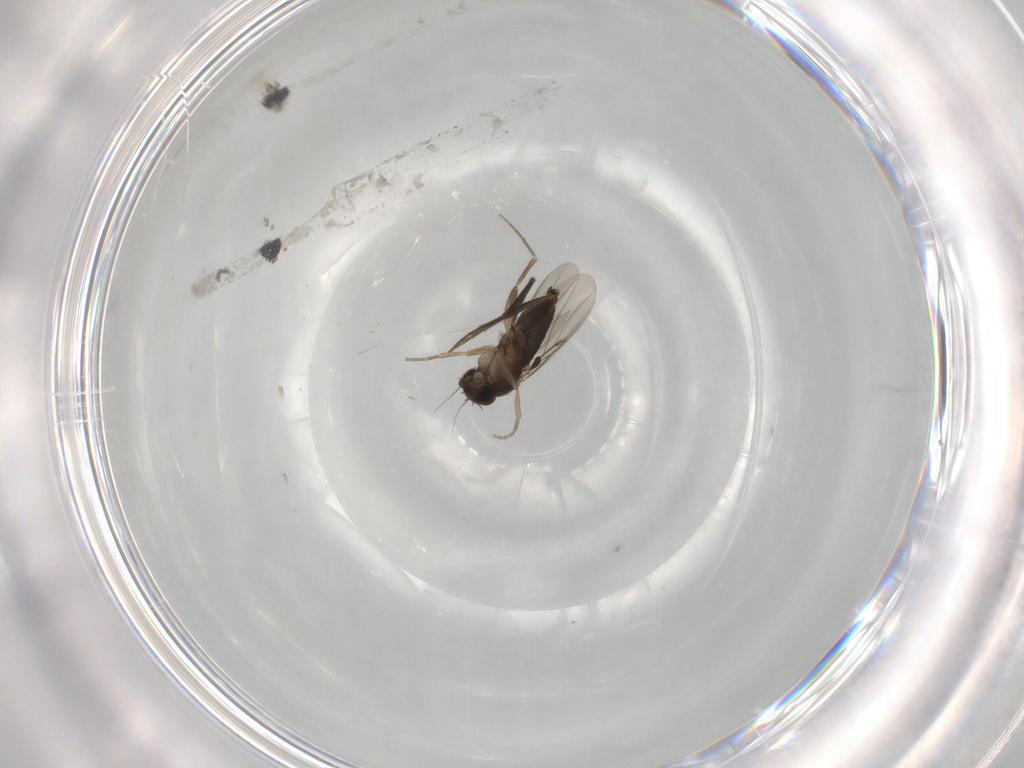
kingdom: Animalia
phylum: Arthropoda
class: Insecta
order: Diptera
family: Phoridae
